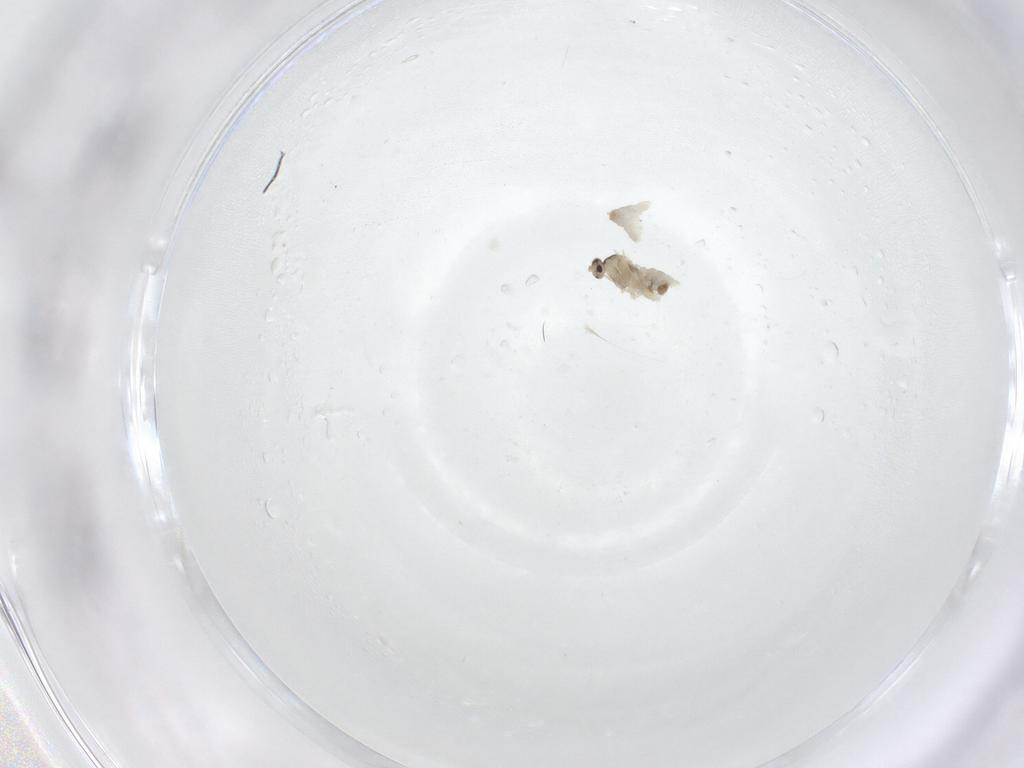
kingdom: Animalia
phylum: Arthropoda
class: Insecta
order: Diptera
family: Cecidomyiidae
